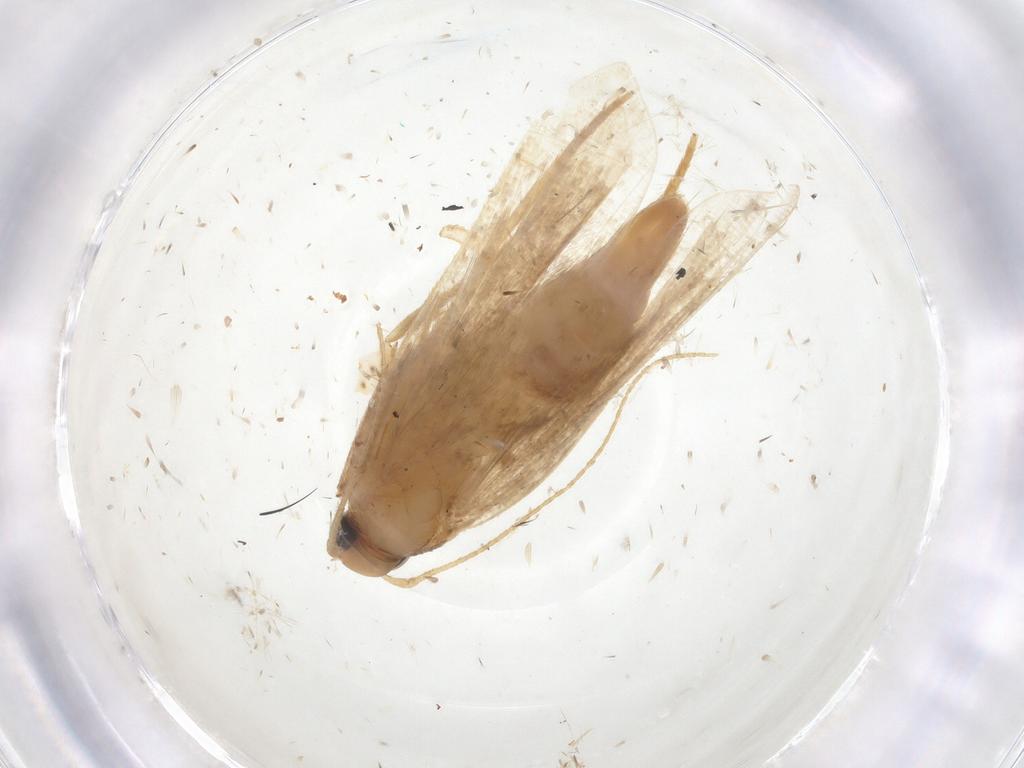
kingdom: Animalia
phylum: Arthropoda
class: Insecta
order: Lepidoptera
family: Gelechiidae
